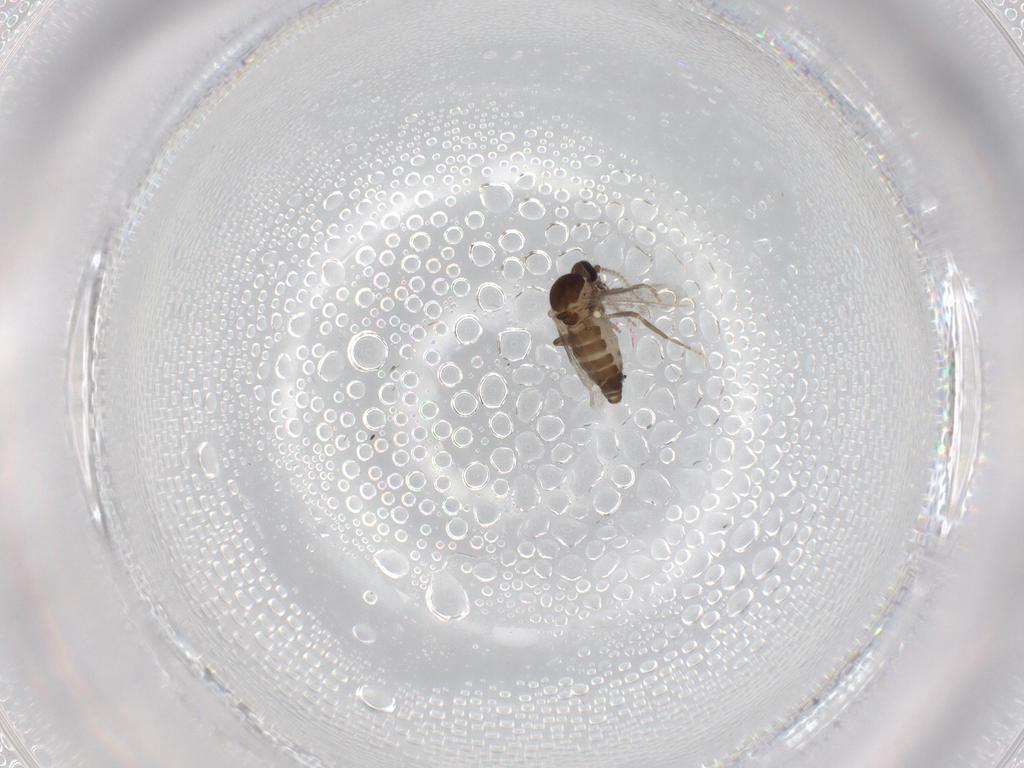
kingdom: Animalia
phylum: Arthropoda
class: Insecta
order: Diptera
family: Ceratopogonidae
